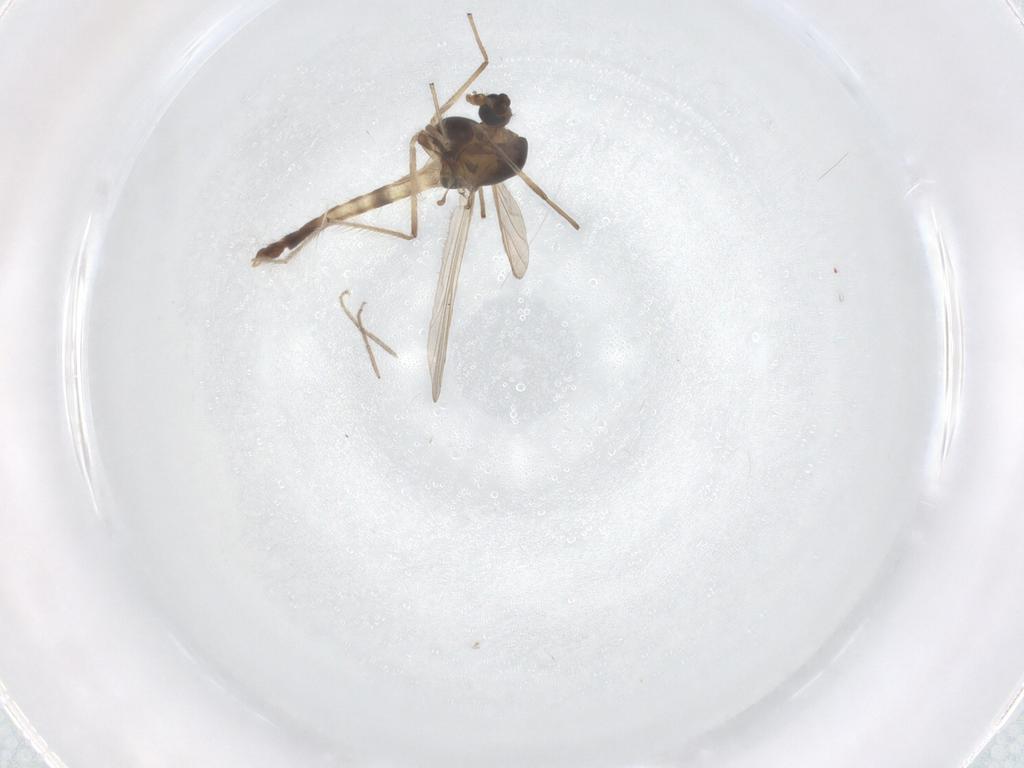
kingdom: Animalia
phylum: Arthropoda
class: Insecta
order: Diptera
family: Chironomidae
